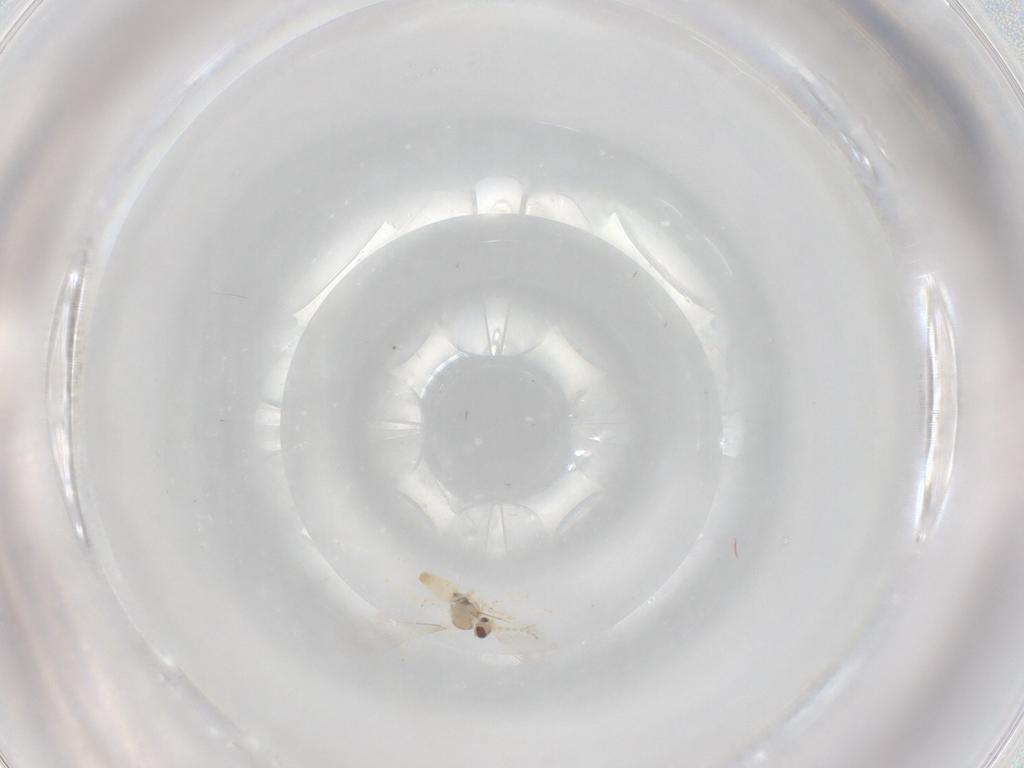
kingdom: Animalia
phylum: Arthropoda
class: Insecta
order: Diptera
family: Cecidomyiidae
